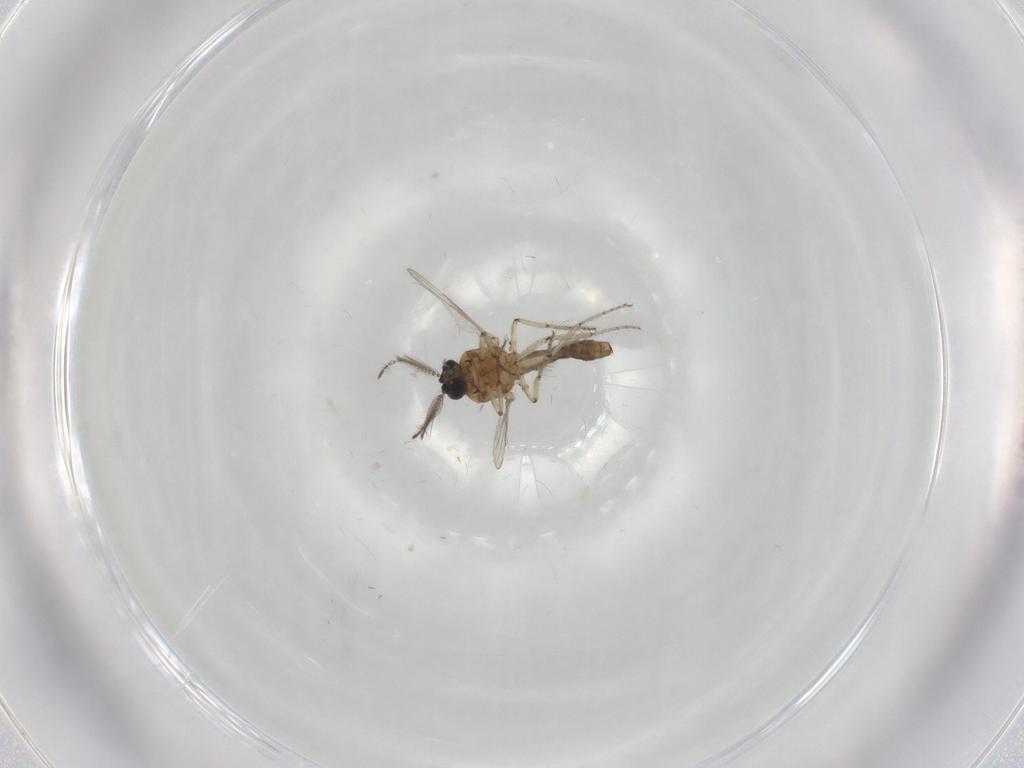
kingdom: Animalia
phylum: Arthropoda
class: Insecta
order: Diptera
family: Ceratopogonidae
